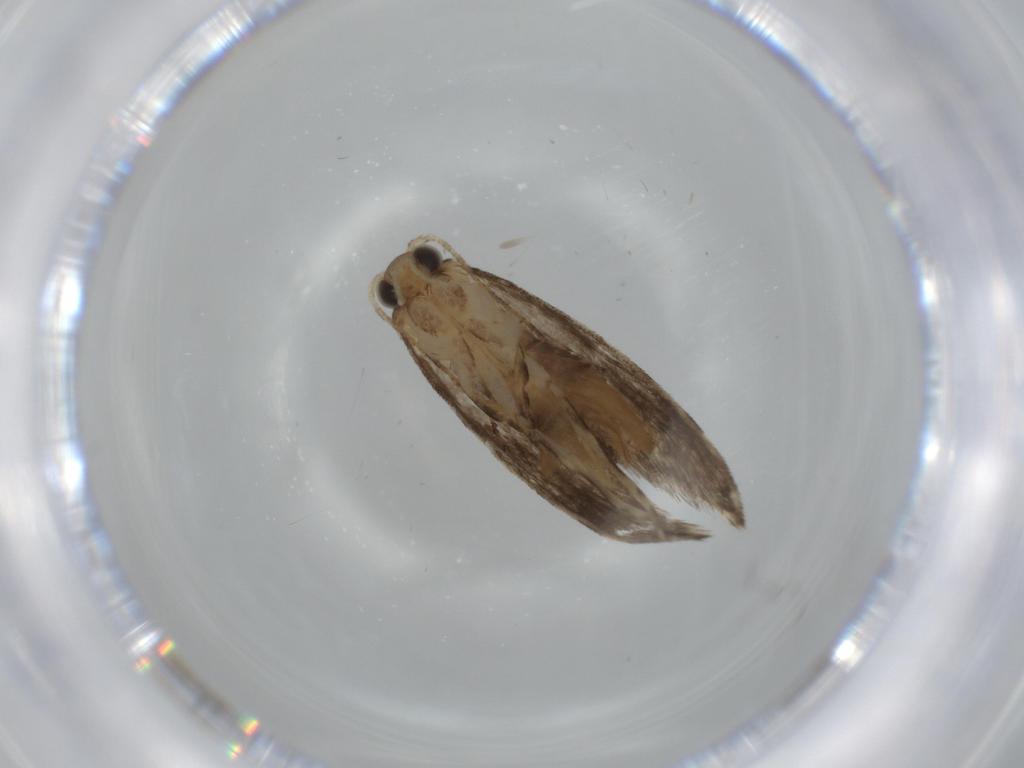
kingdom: Animalia
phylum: Arthropoda
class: Insecta
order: Lepidoptera
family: Tineidae
